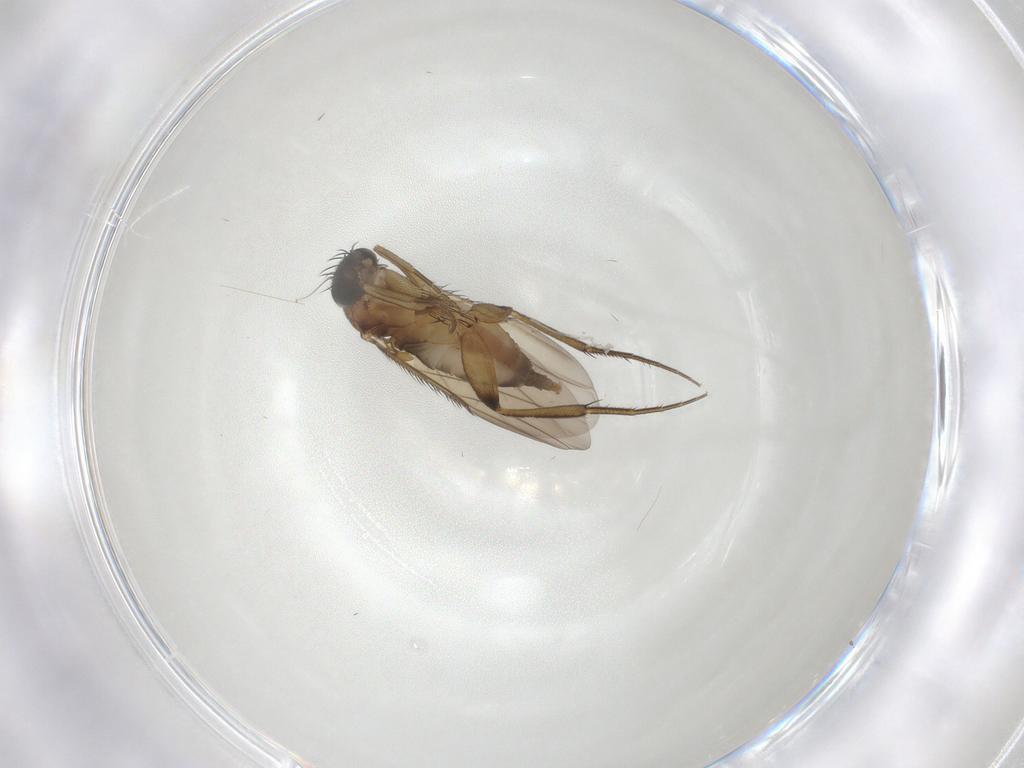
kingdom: Animalia
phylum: Arthropoda
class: Insecta
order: Diptera
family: Phoridae
